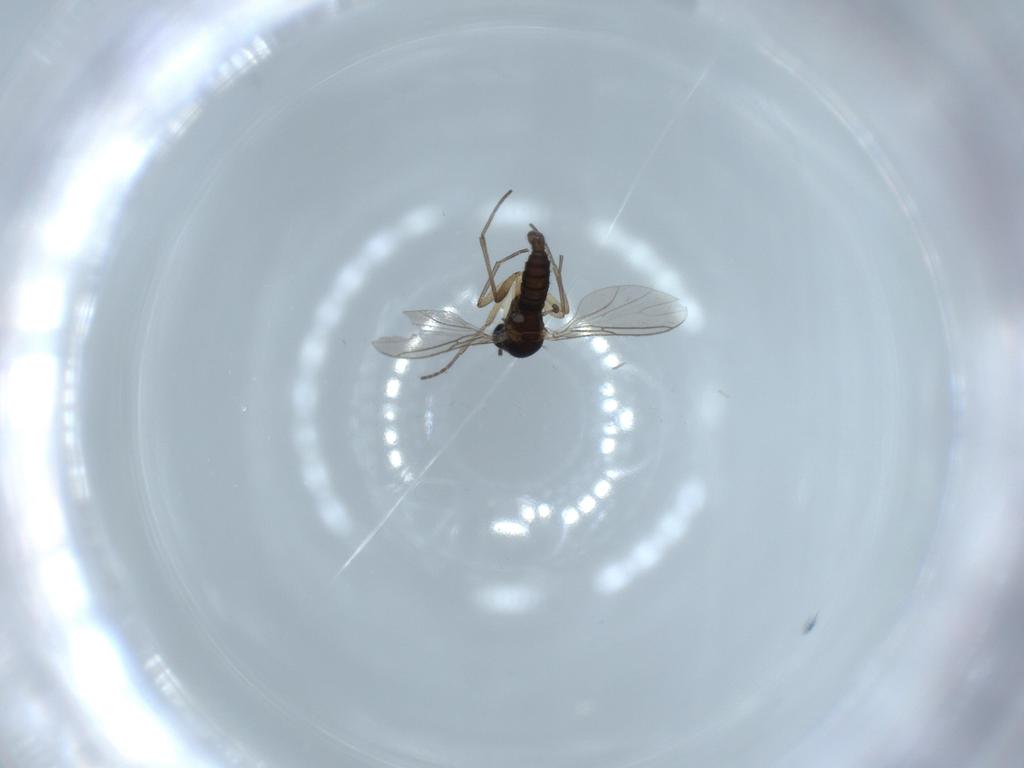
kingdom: Animalia
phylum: Arthropoda
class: Insecta
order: Diptera
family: Sciaridae
